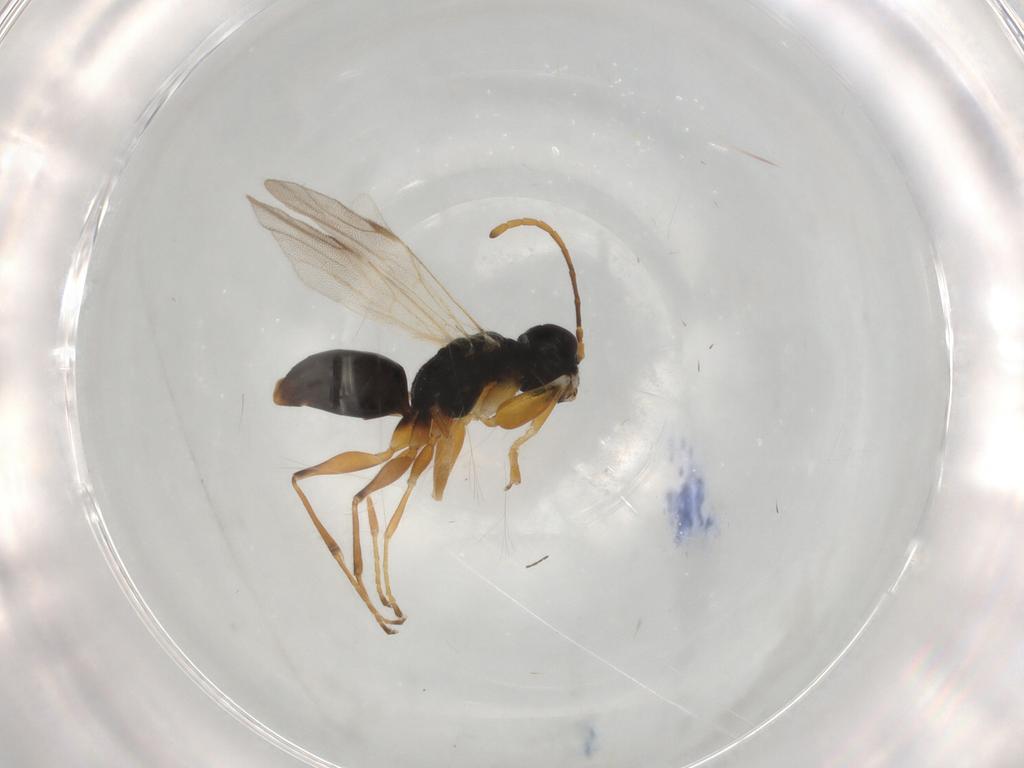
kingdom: Animalia
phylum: Arthropoda
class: Insecta
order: Hymenoptera
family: Dryinidae
